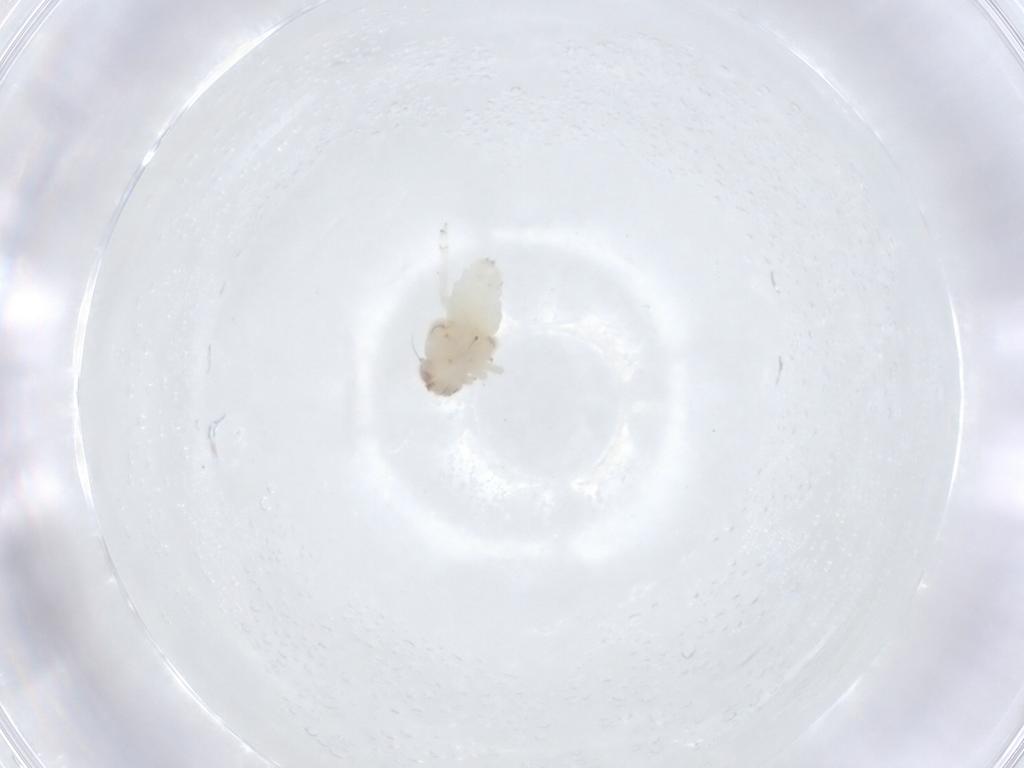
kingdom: Animalia
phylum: Arthropoda
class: Insecta
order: Hemiptera
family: Nogodinidae
